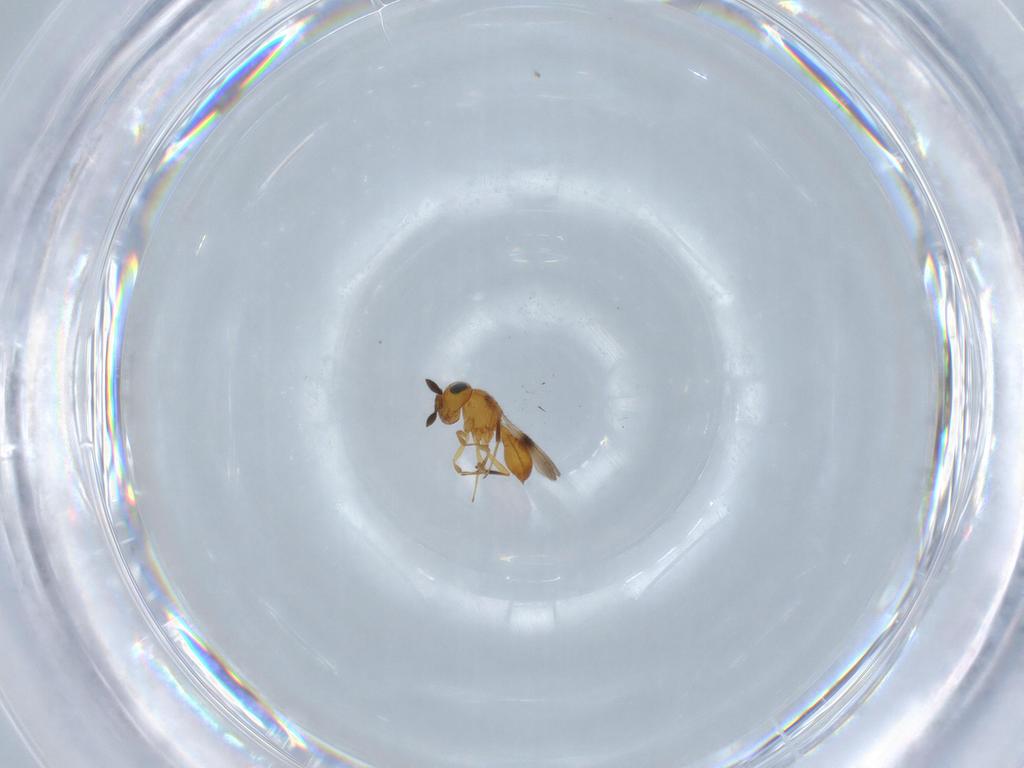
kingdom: Animalia
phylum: Arthropoda
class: Insecta
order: Hymenoptera
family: Scelionidae
